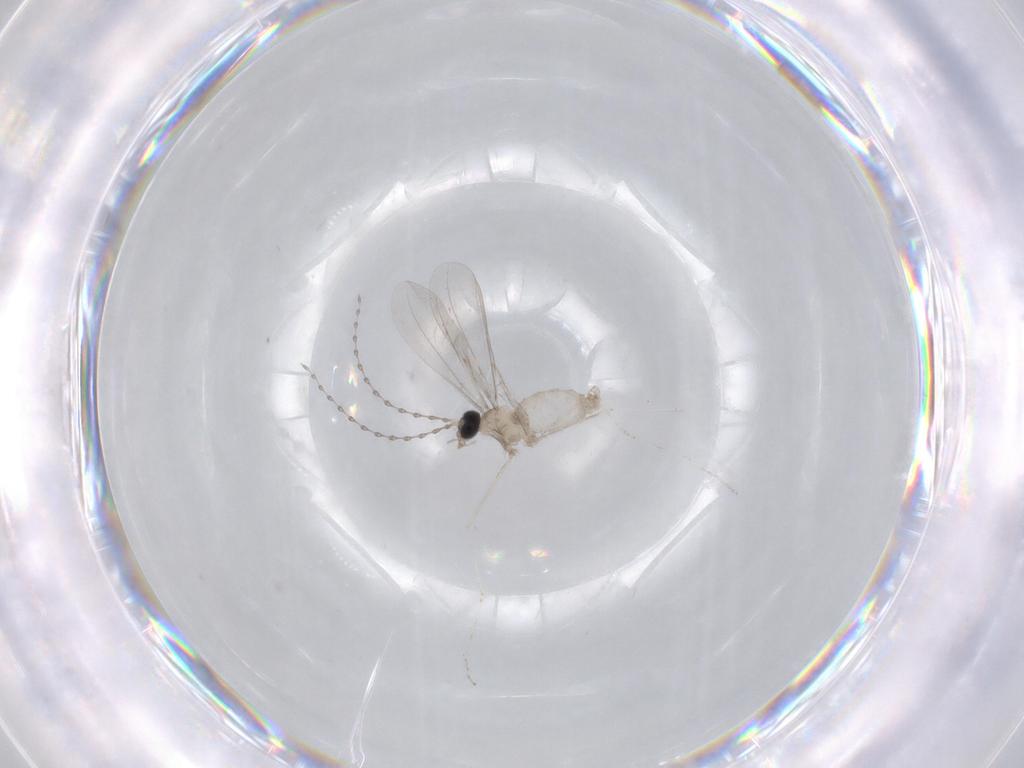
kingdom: Animalia
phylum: Arthropoda
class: Insecta
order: Diptera
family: Cecidomyiidae
